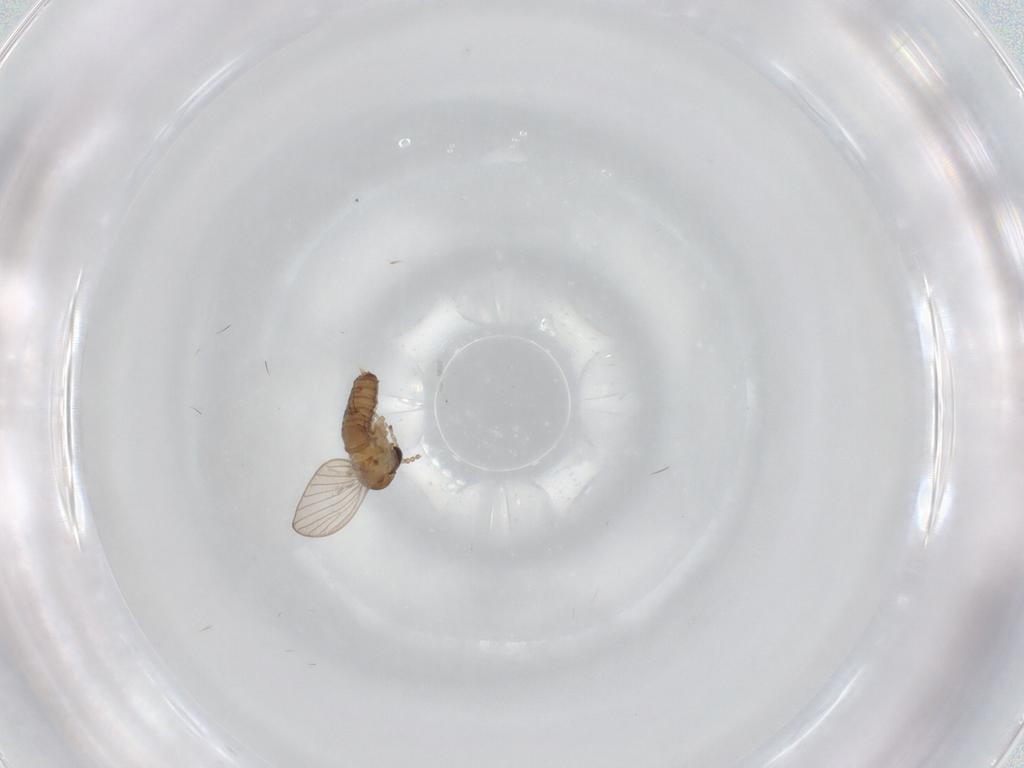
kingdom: Animalia
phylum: Arthropoda
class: Insecta
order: Diptera
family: Psychodidae
